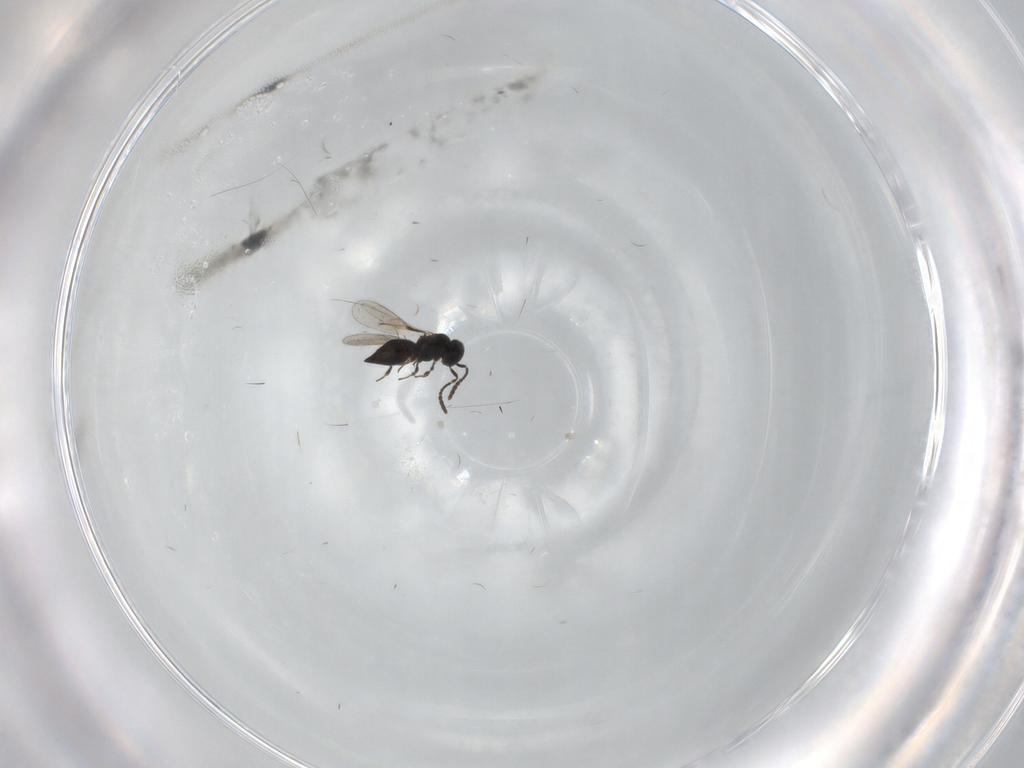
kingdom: Animalia
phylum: Arthropoda
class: Insecta
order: Hymenoptera
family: Scelionidae
